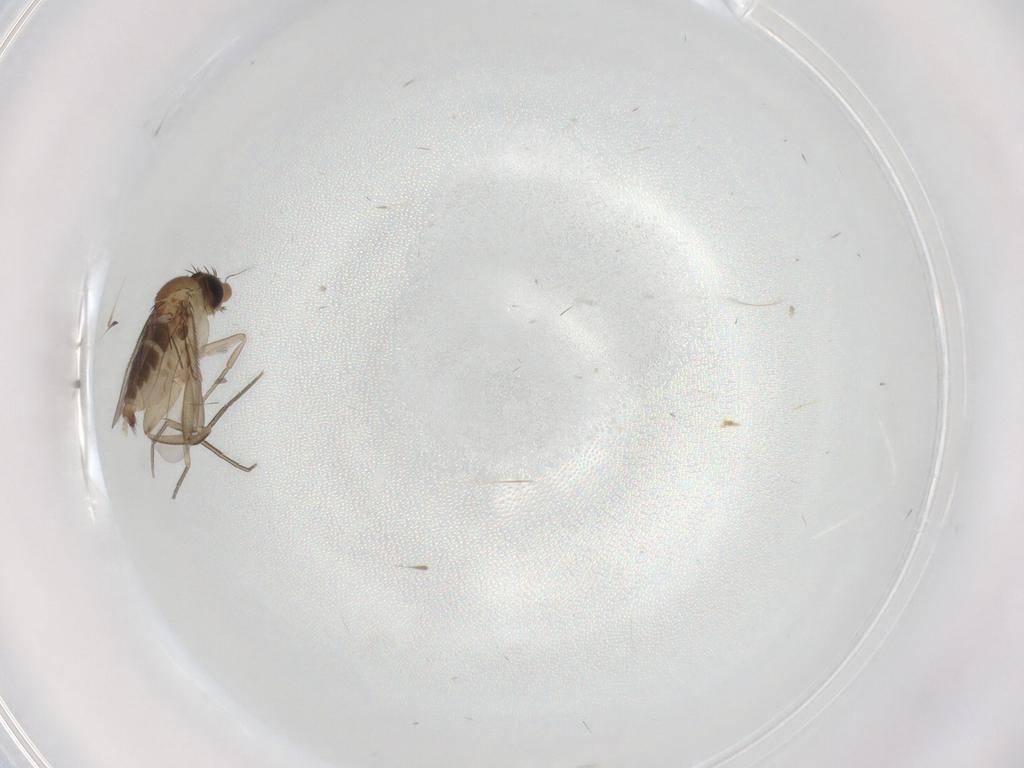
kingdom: Animalia
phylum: Arthropoda
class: Insecta
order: Diptera
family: Phoridae
